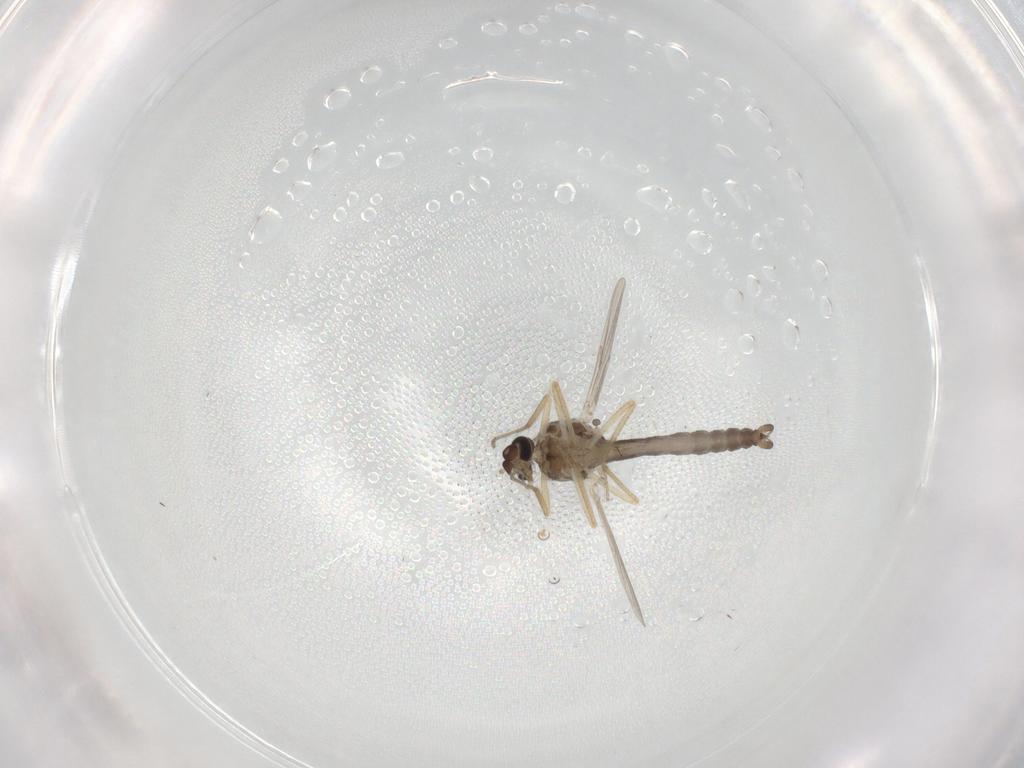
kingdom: Animalia
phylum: Arthropoda
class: Insecta
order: Diptera
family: Ceratopogonidae
